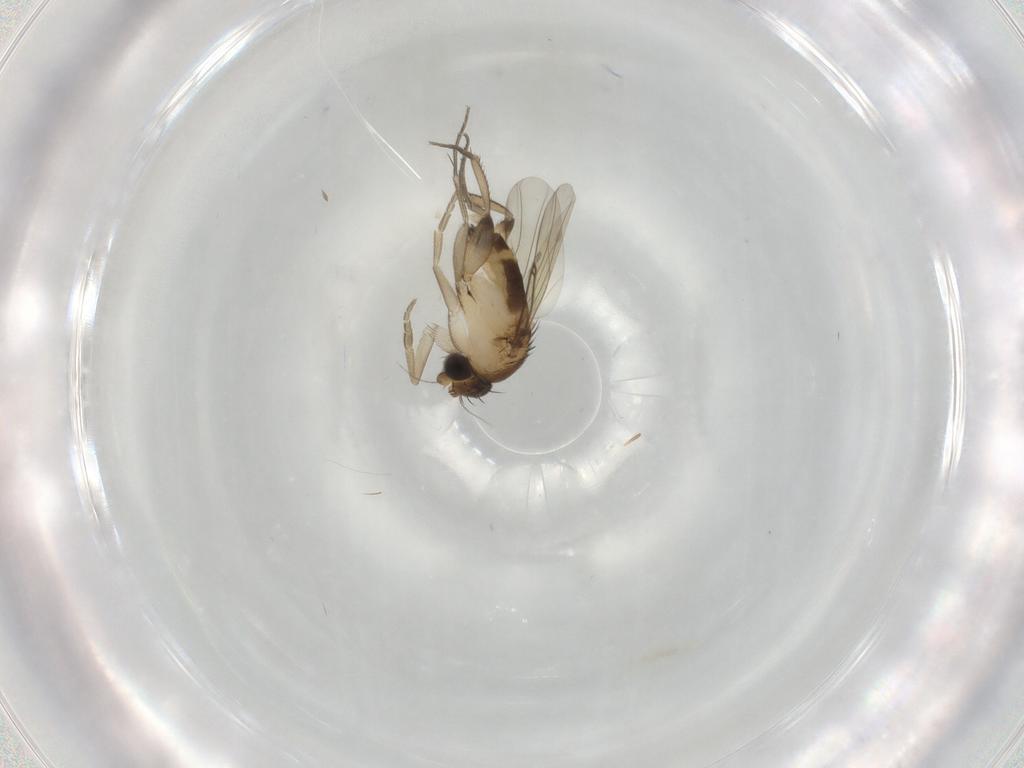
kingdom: Animalia
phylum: Arthropoda
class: Insecta
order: Diptera
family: Phoridae
